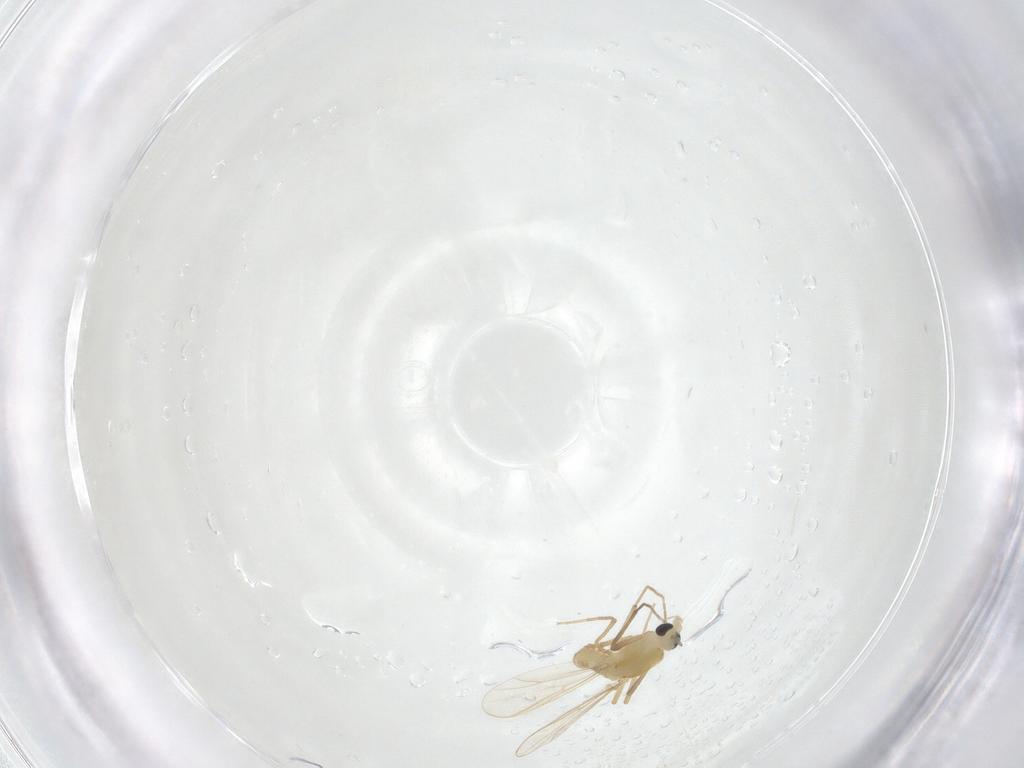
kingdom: Animalia
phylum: Arthropoda
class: Insecta
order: Diptera
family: Chironomidae
